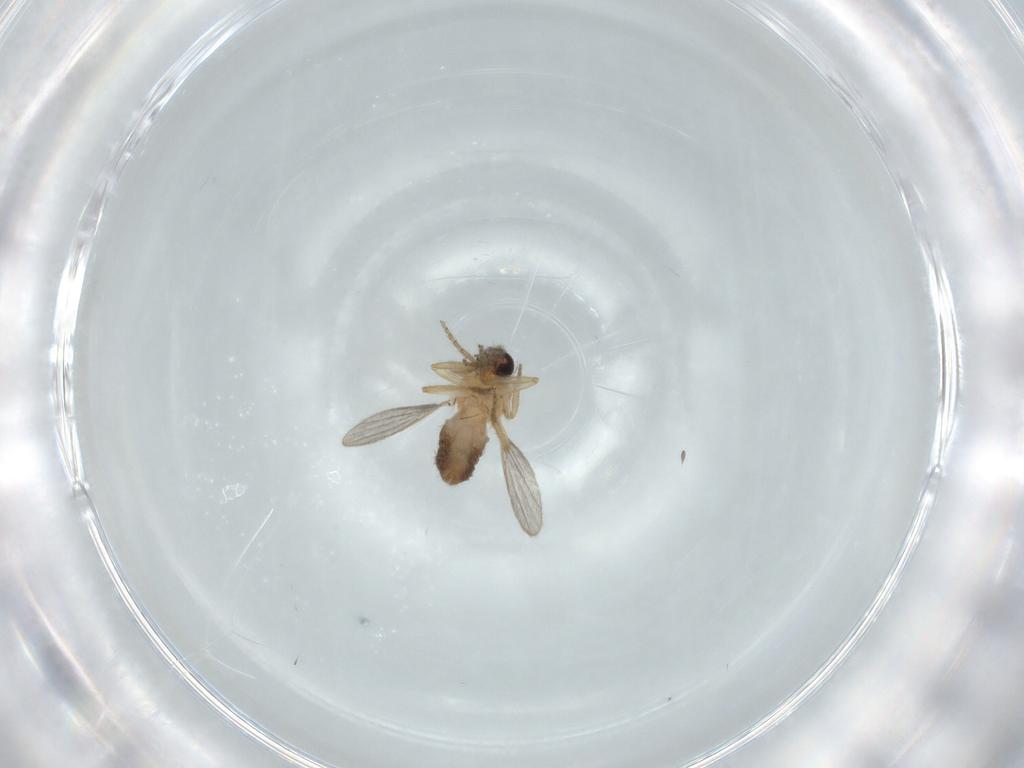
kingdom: Animalia
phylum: Arthropoda
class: Insecta
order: Diptera
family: Ceratopogonidae
